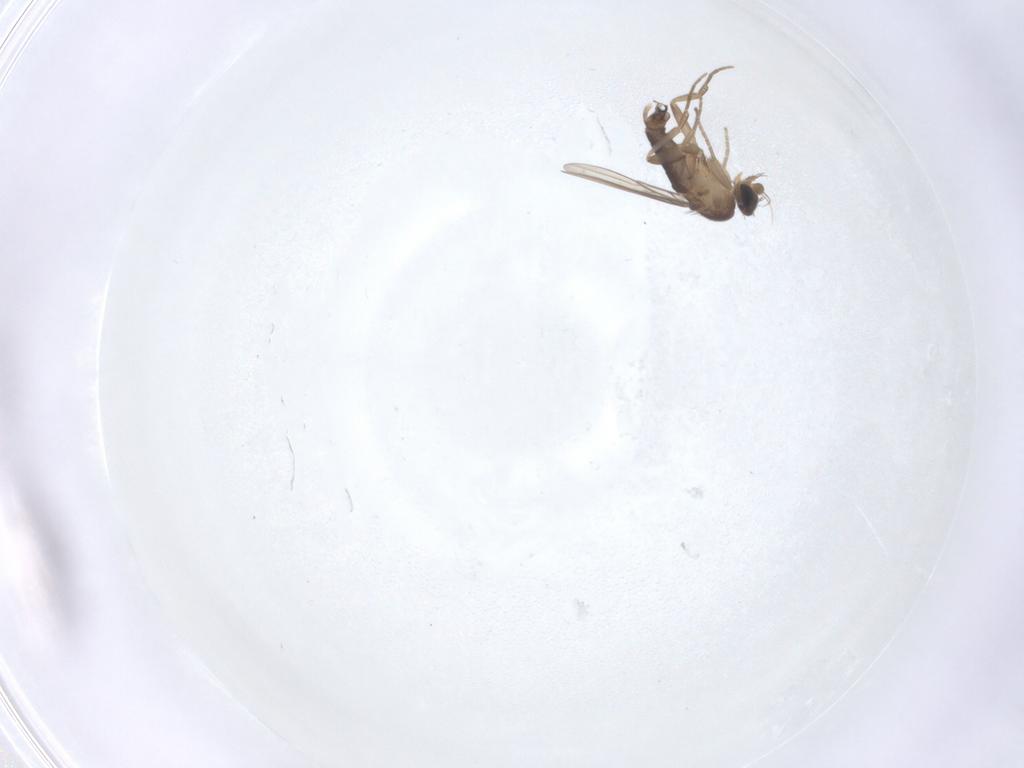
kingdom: Animalia
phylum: Arthropoda
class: Insecta
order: Diptera
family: Phoridae
